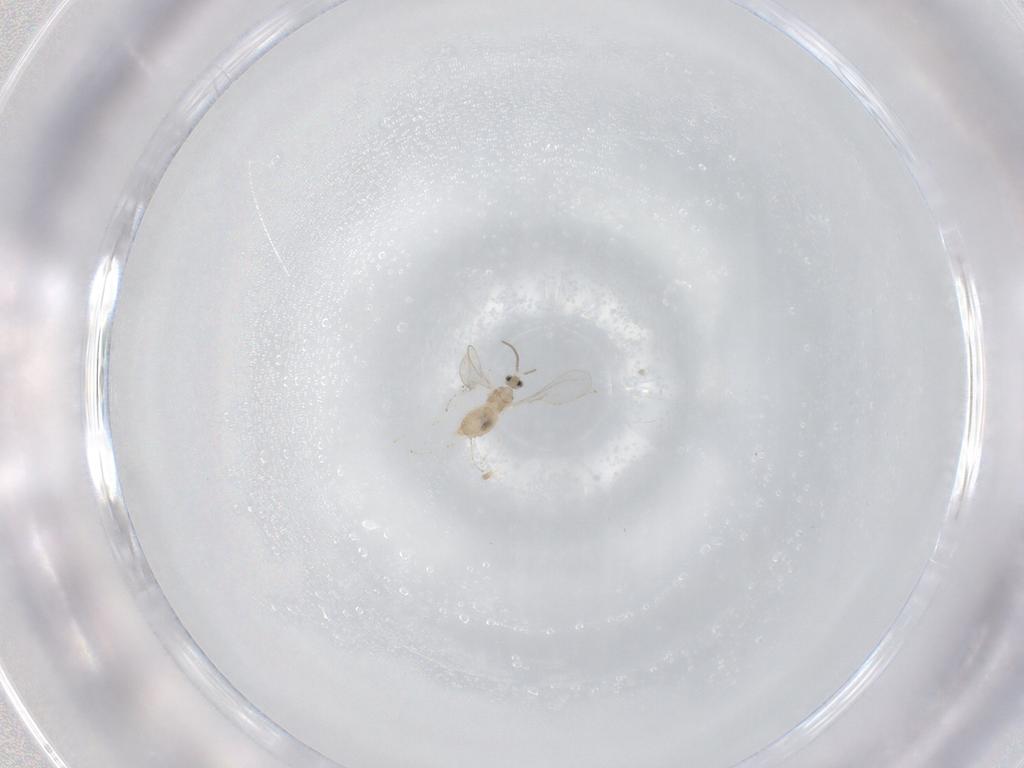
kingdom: Animalia
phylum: Arthropoda
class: Insecta
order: Diptera
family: Cecidomyiidae
